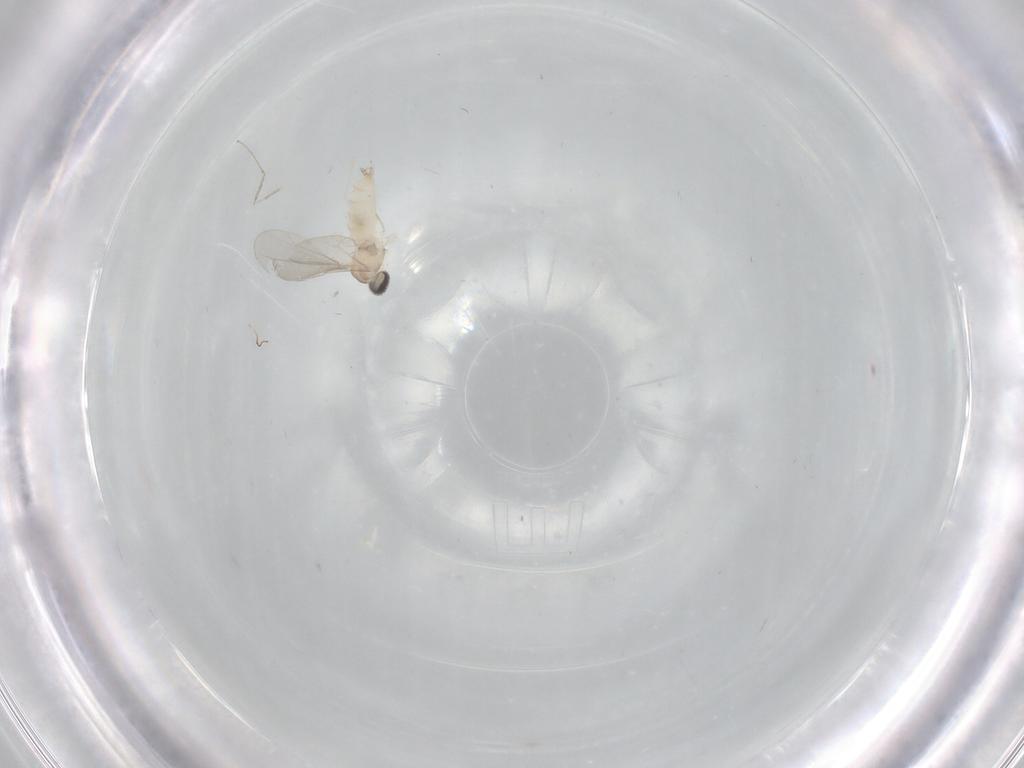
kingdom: Animalia
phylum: Arthropoda
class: Insecta
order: Diptera
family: Cecidomyiidae
